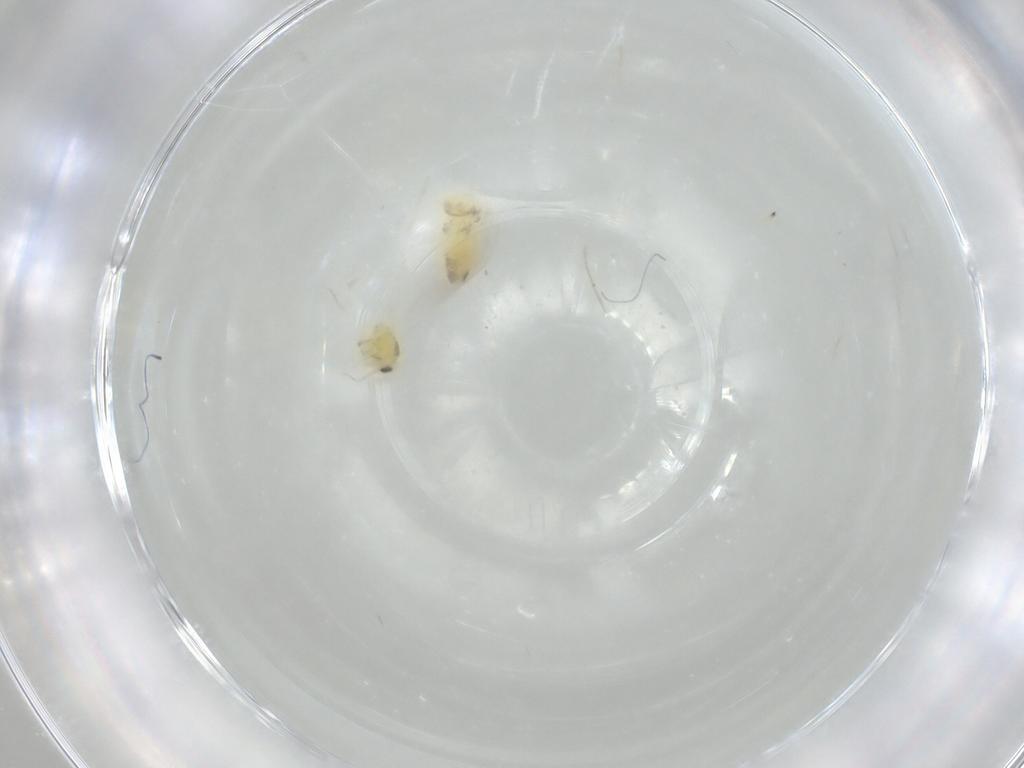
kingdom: Animalia
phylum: Arthropoda
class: Insecta
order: Hemiptera
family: Aleyrodidae
